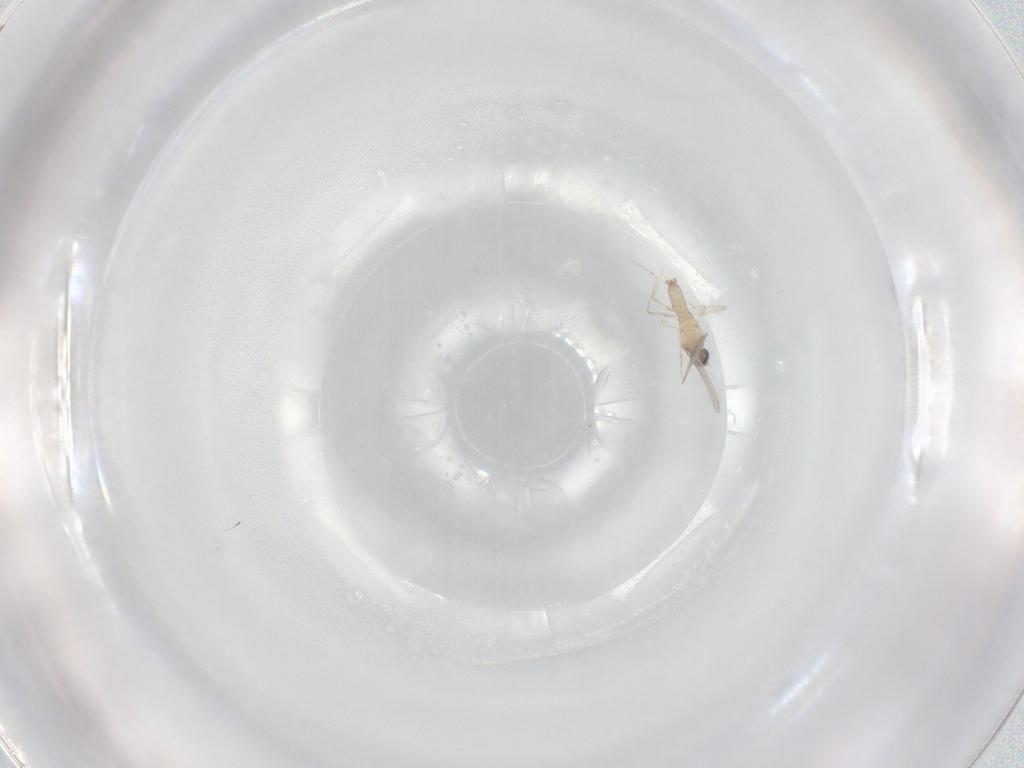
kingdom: Animalia
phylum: Arthropoda
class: Insecta
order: Diptera
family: Cecidomyiidae
